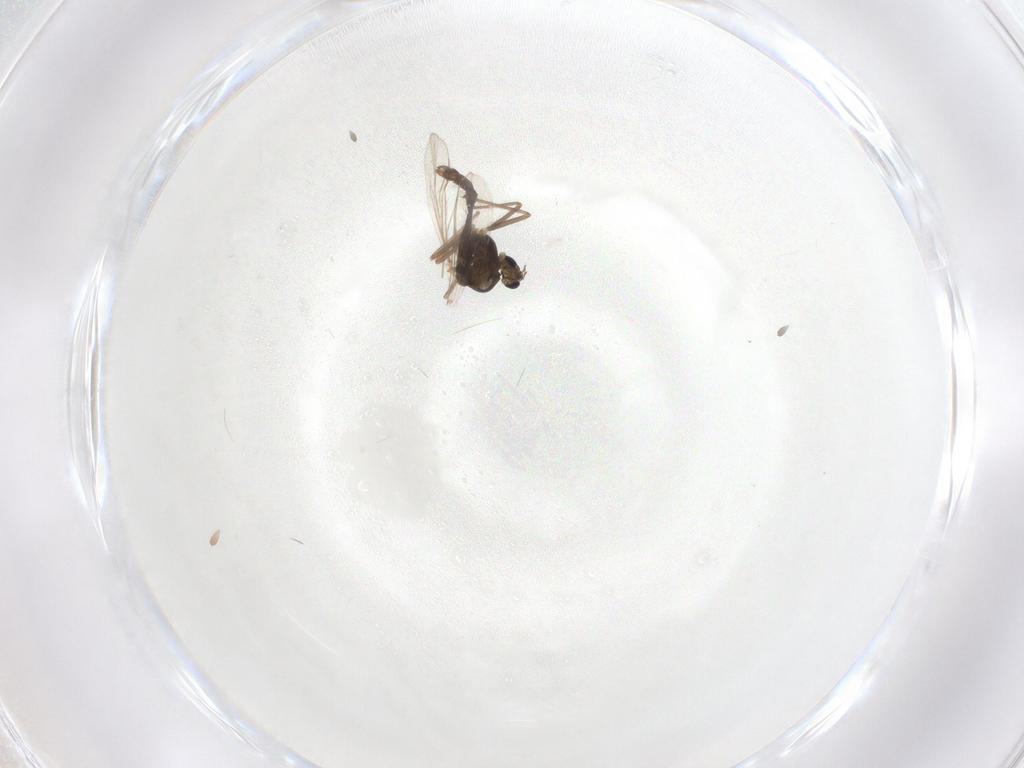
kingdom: Animalia
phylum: Arthropoda
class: Insecta
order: Diptera
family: Chironomidae
